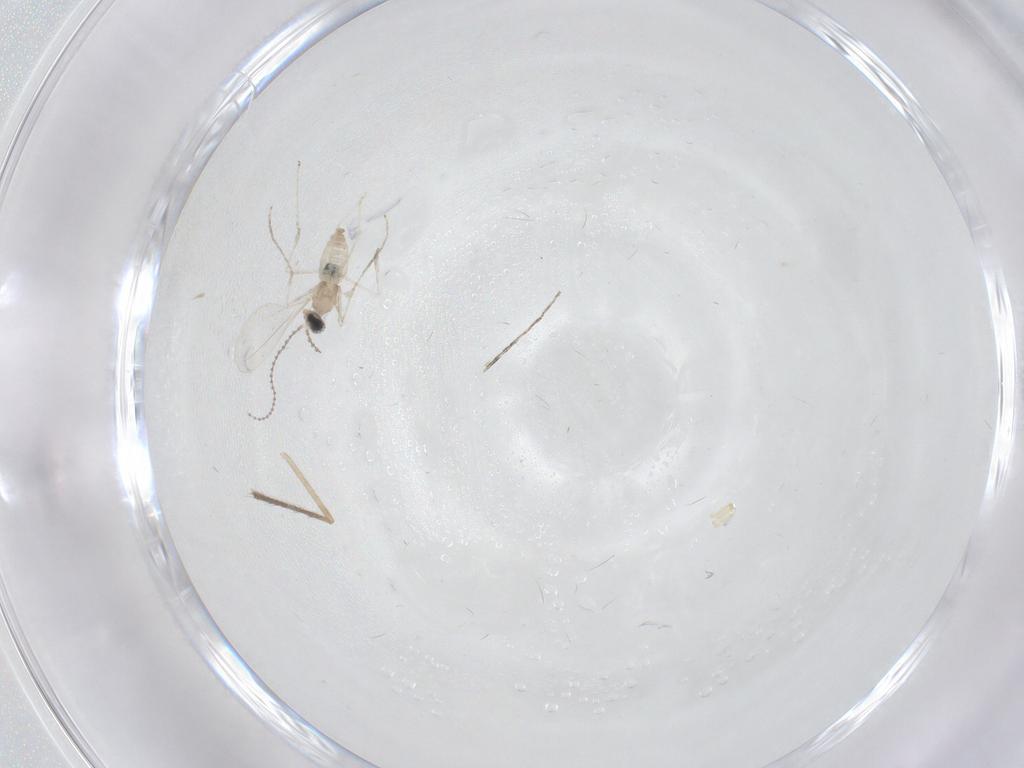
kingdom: Animalia
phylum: Arthropoda
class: Insecta
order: Diptera
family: Chironomidae
